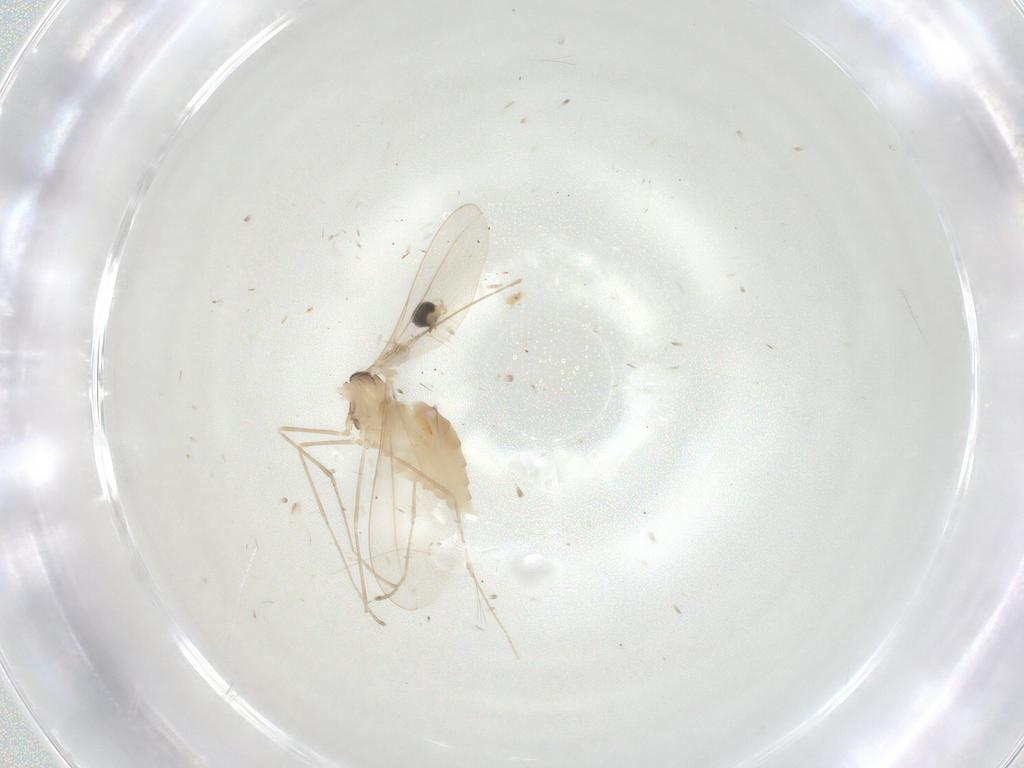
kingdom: Animalia
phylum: Arthropoda
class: Insecta
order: Diptera
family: Cecidomyiidae
